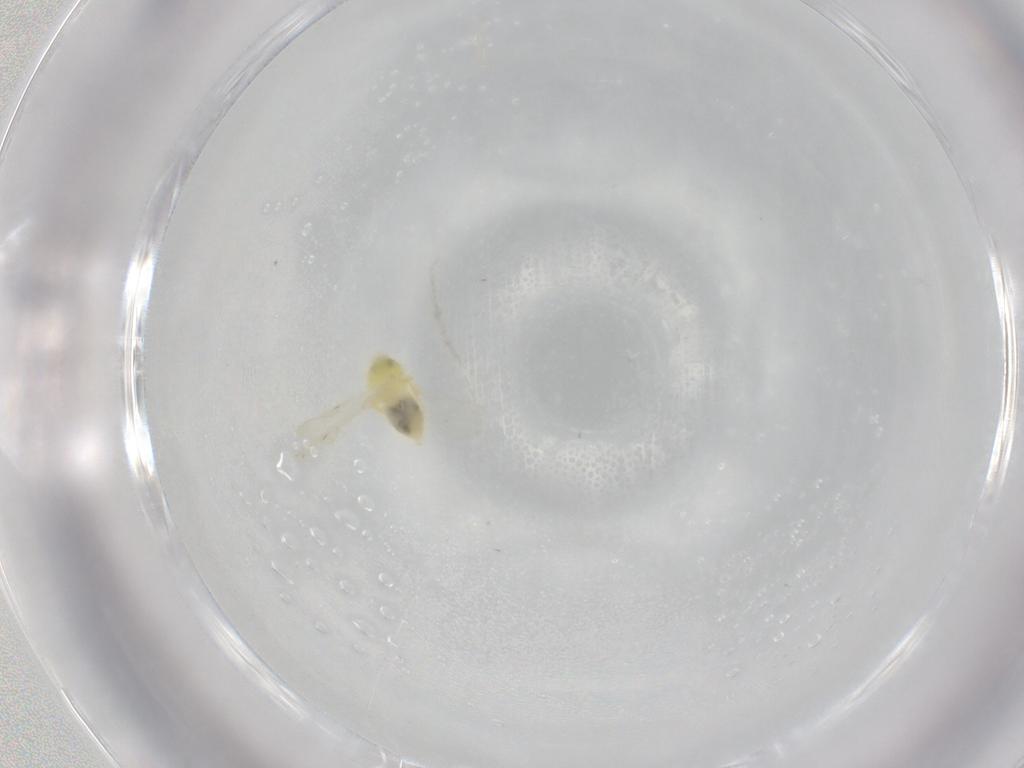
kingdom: Animalia
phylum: Arthropoda
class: Insecta
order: Hemiptera
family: Aleyrodidae
